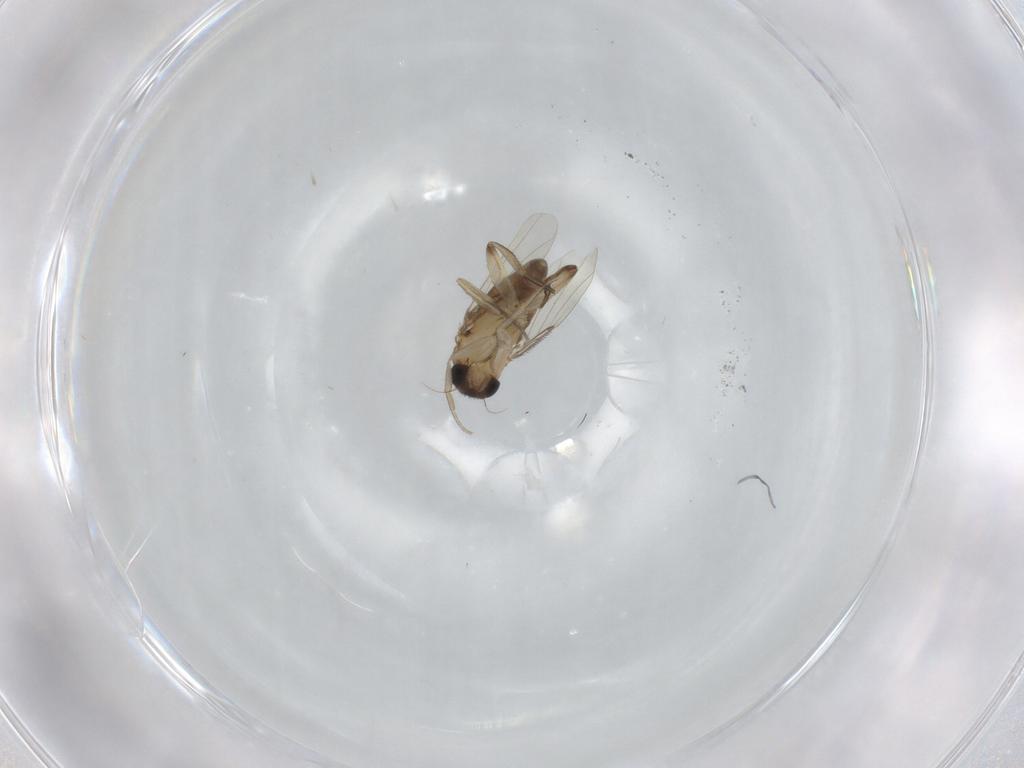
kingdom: Animalia
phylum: Arthropoda
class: Insecta
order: Diptera
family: Phoridae
